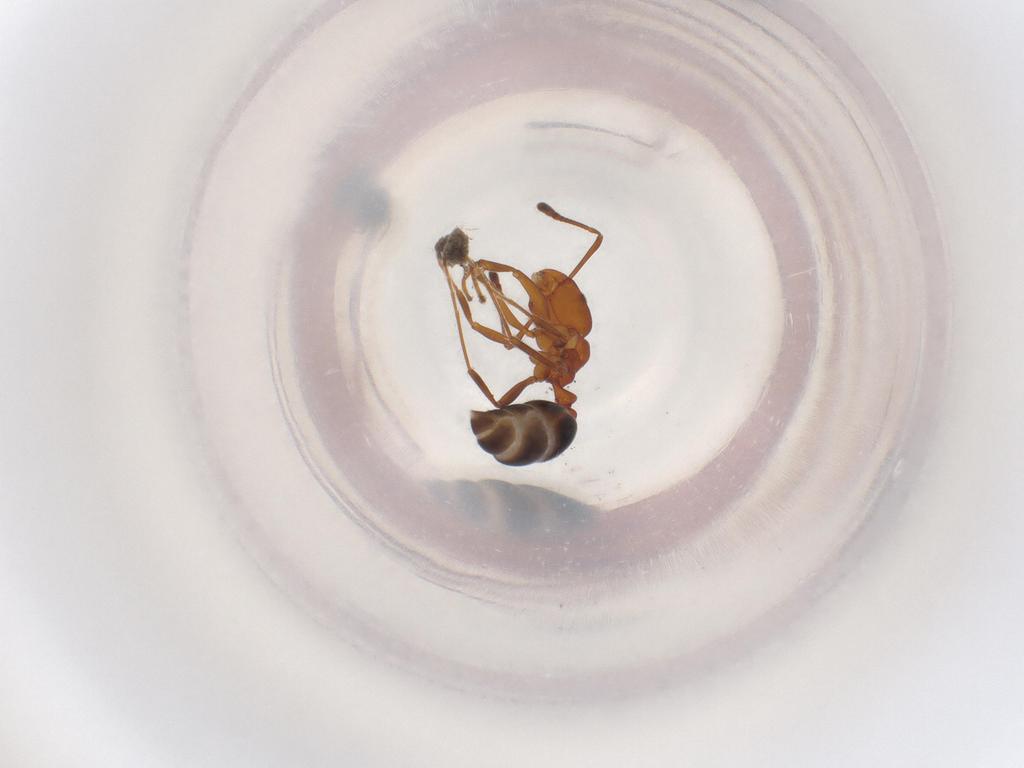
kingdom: Animalia
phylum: Arthropoda
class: Insecta
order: Hymenoptera
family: Formicidae
